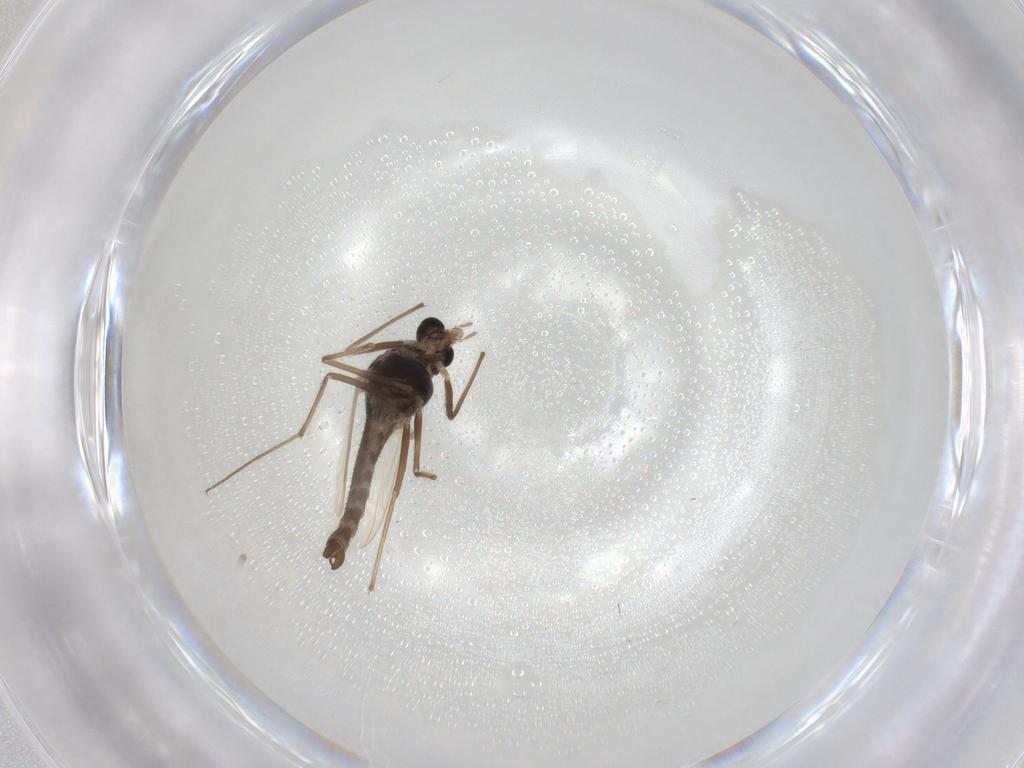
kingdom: Animalia
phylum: Arthropoda
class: Insecta
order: Diptera
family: Chironomidae
